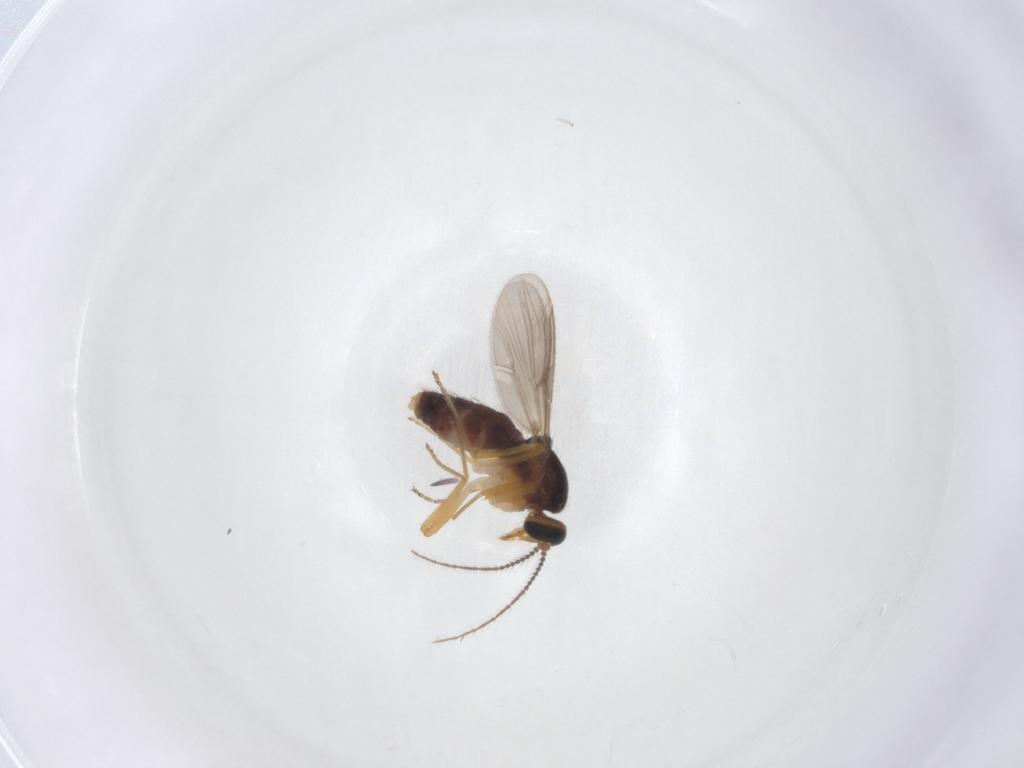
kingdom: Animalia
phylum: Arthropoda
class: Insecta
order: Diptera
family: Ceratopogonidae
